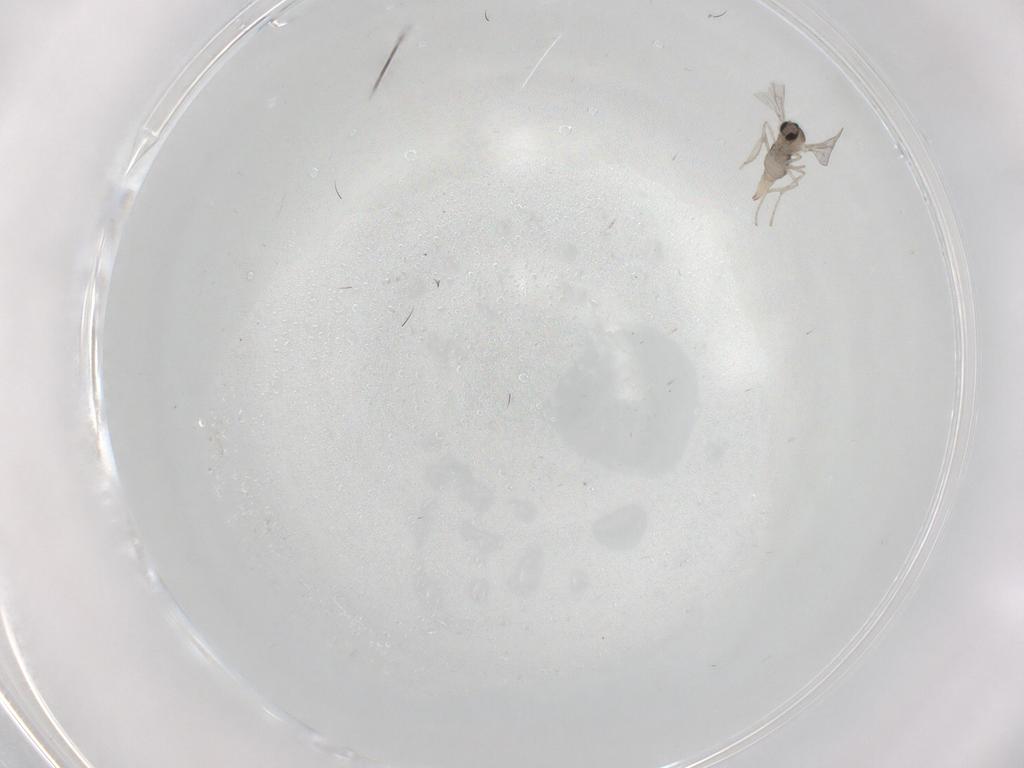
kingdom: Animalia
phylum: Arthropoda
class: Insecta
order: Diptera
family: Cecidomyiidae
